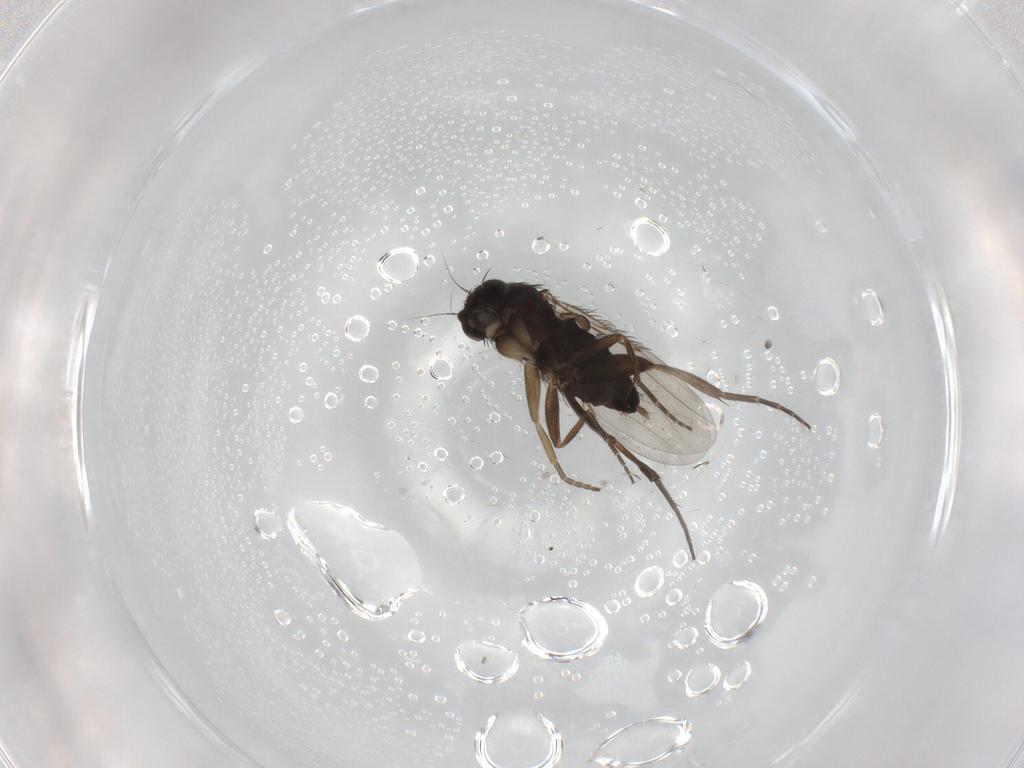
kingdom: Animalia
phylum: Arthropoda
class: Insecta
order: Diptera
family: Phoridae
